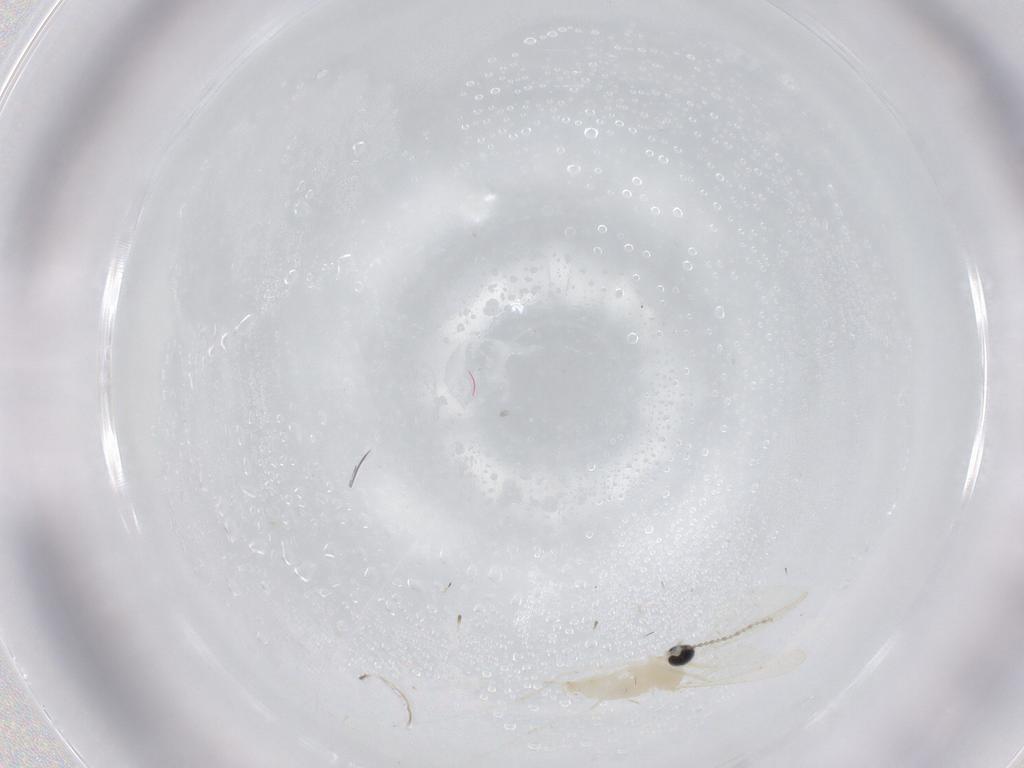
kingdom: Animalia
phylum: Arthropoda
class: Insecta
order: Diptera
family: Cecidomyiidae
